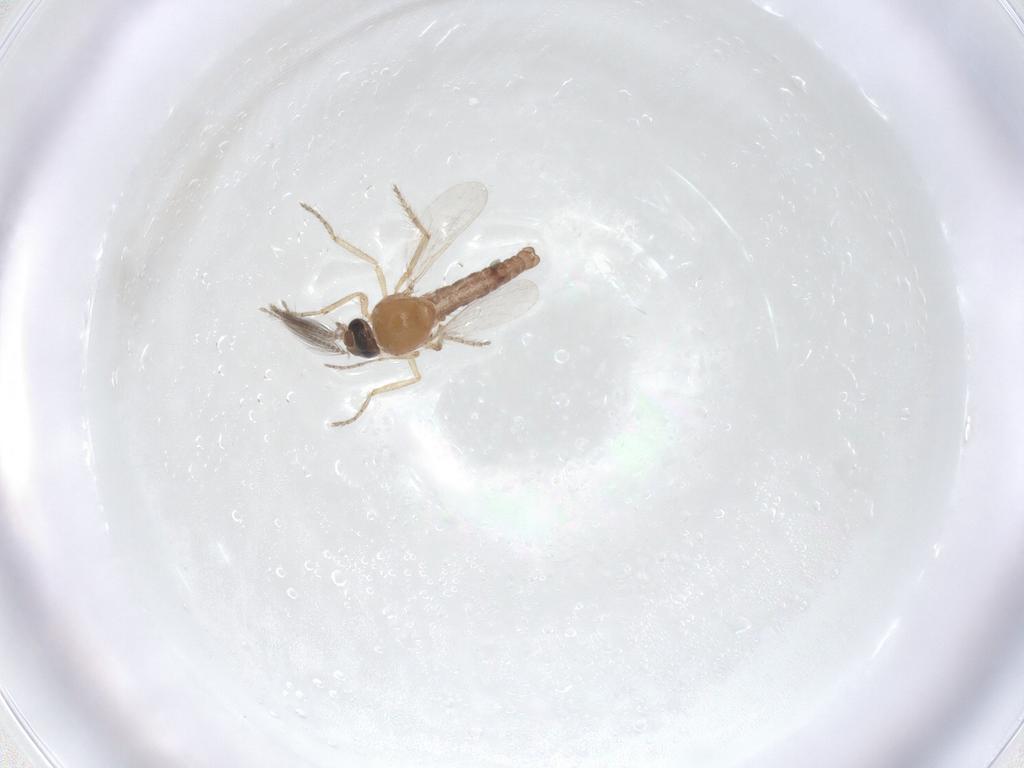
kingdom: Animalia
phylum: Arthropoda
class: Insecta
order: Diptera
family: Ceratopogonidae
